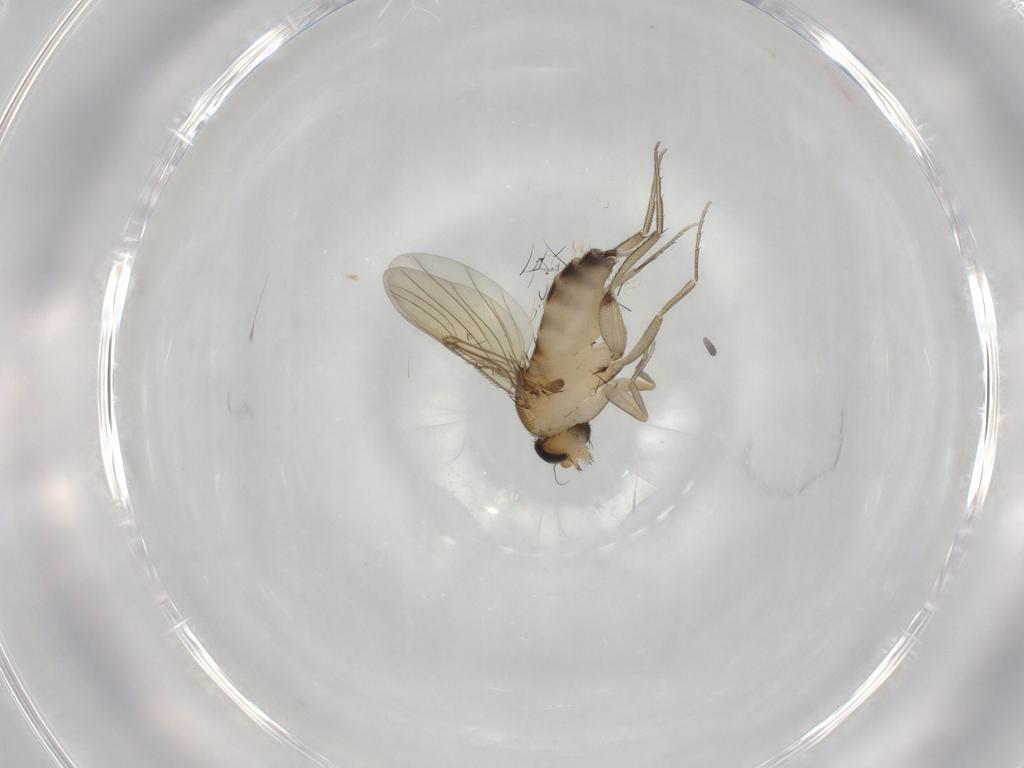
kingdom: Animalia
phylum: Arthropoda
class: Insecta
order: Diptera
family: Phoridae
